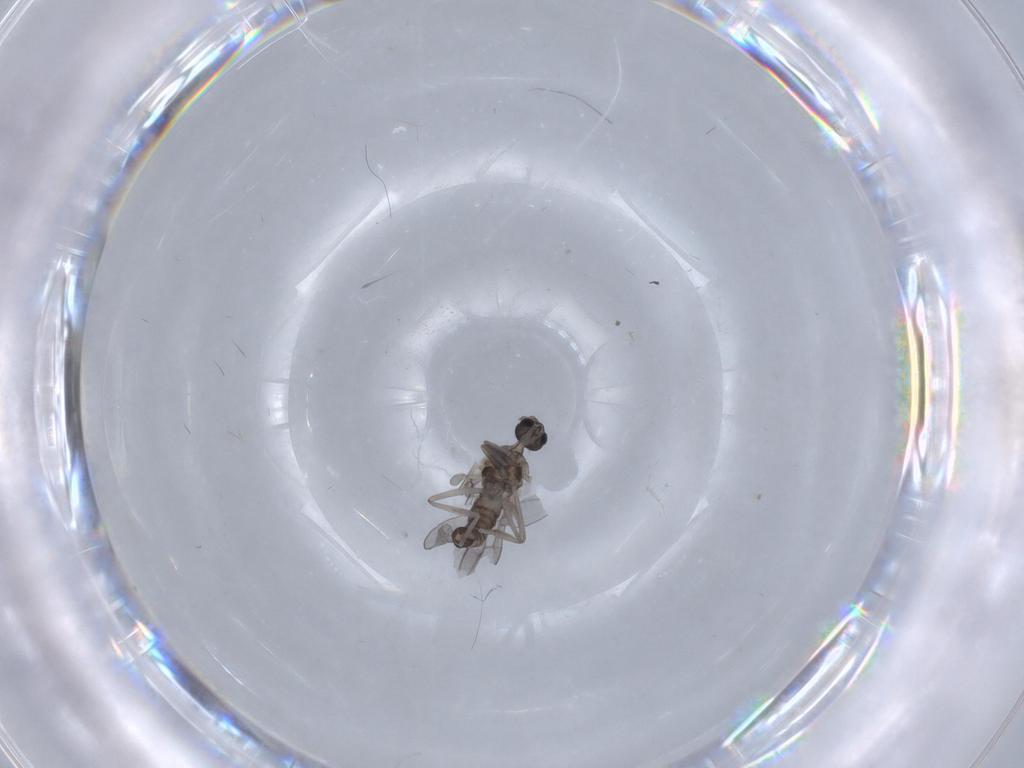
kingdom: Animalia
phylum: Arthropoda
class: Insecta
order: Diptera
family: Cecidomyiidae
